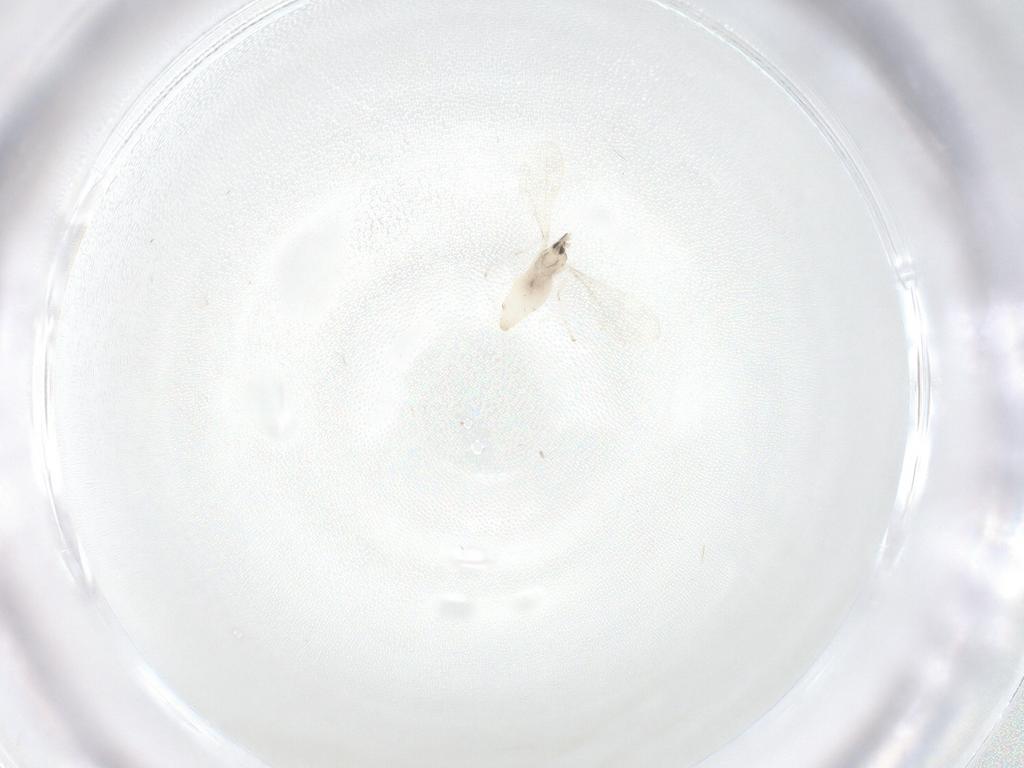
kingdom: Animalia
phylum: Arthropoda
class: Insecta
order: Diptera
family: Cecidomyiidae
